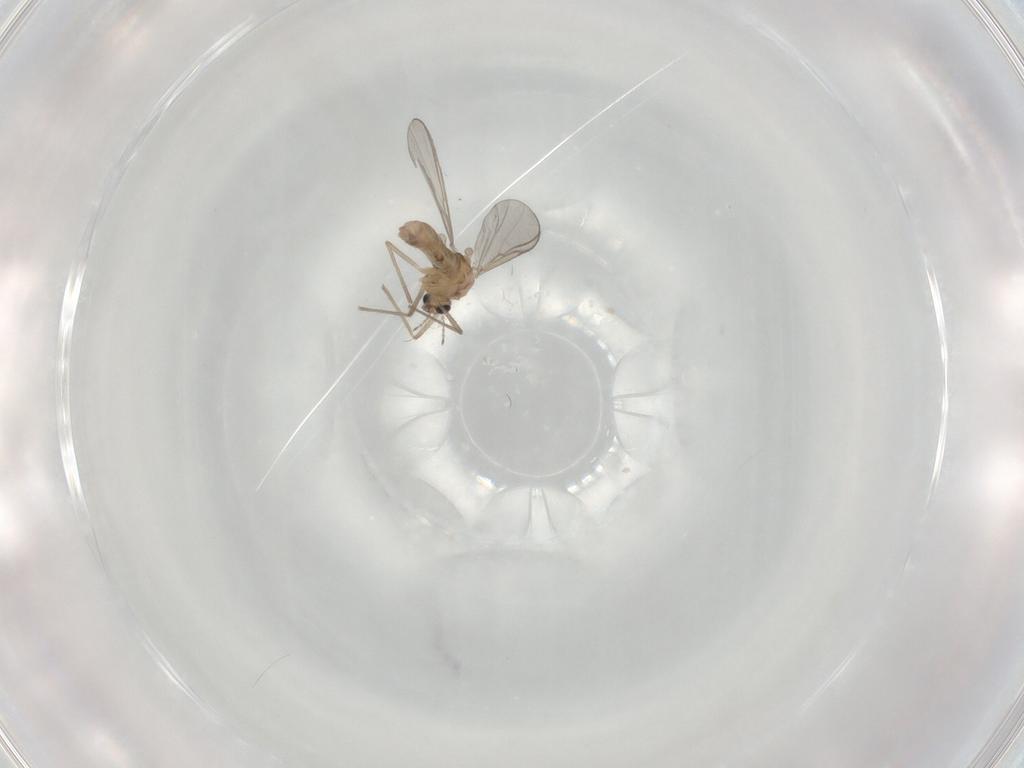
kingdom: Animalia
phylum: Arthropoda
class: Insecta
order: Diptera
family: Chironomidae
